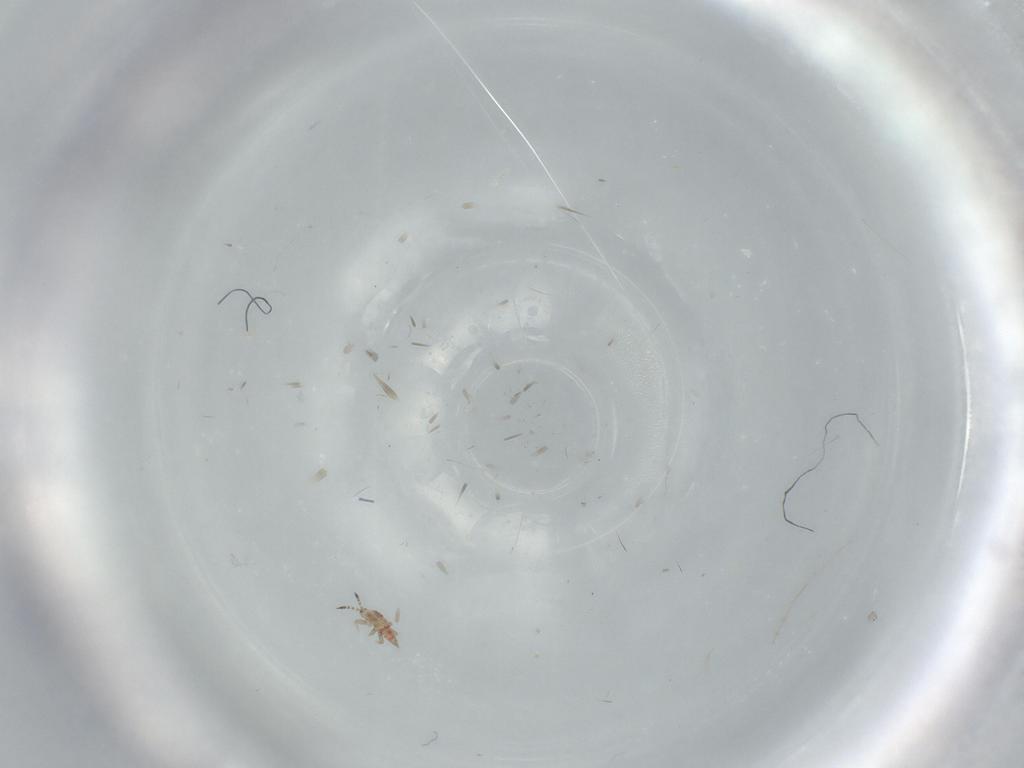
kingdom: Animalia
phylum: Arthropoda
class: Insecta
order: Thysanoptera
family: Phlaeothripidae
